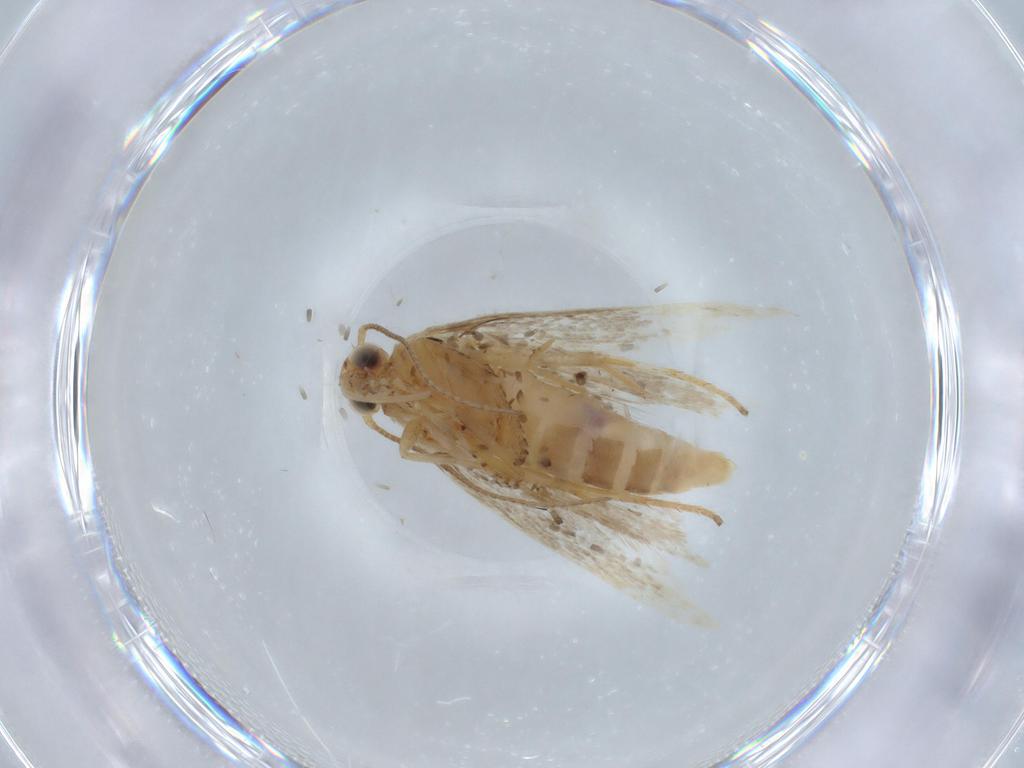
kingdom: Animalia
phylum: Arthropoda
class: Insecta
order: Lepidoptera
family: Gelechiidae
